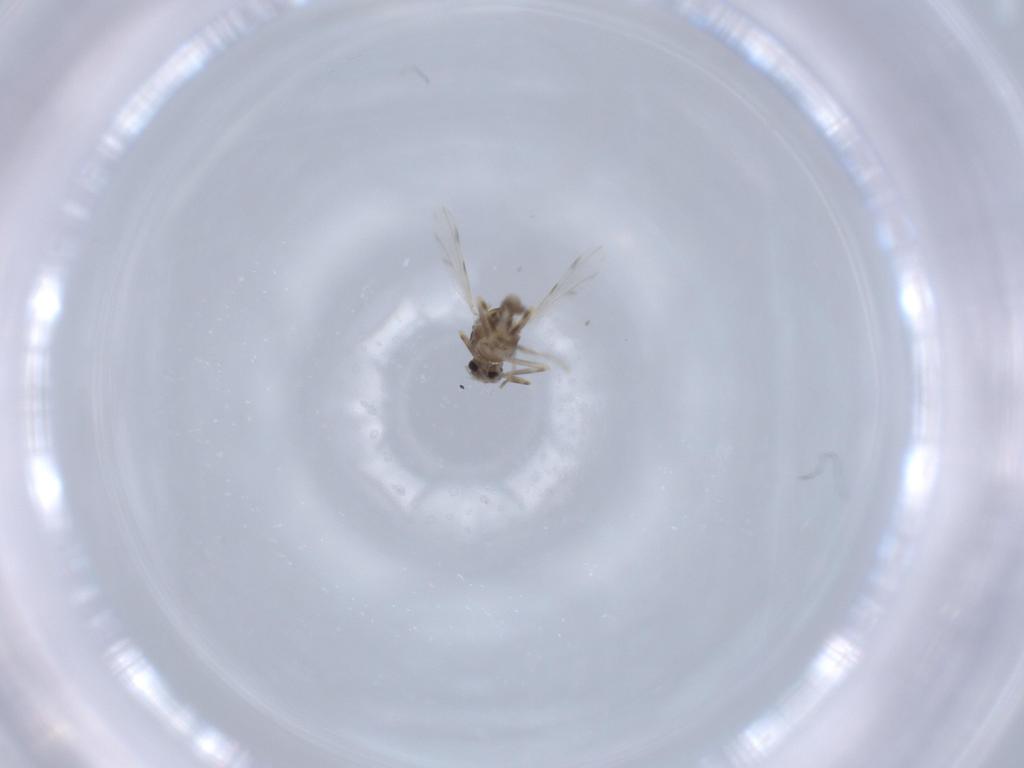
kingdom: Animalia
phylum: Arthropoda
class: Insecta
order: Diptera
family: Ceratopogonidae
